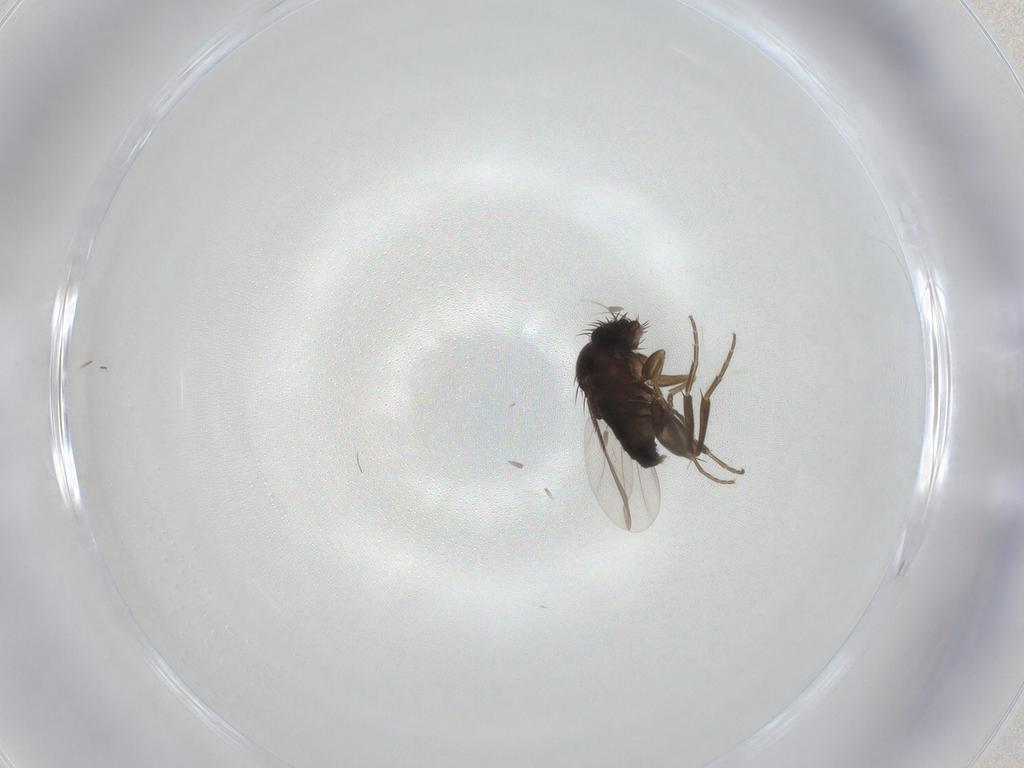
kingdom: Animalia
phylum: Arthropoda
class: Insecta
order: Diptera
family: Phoridae
